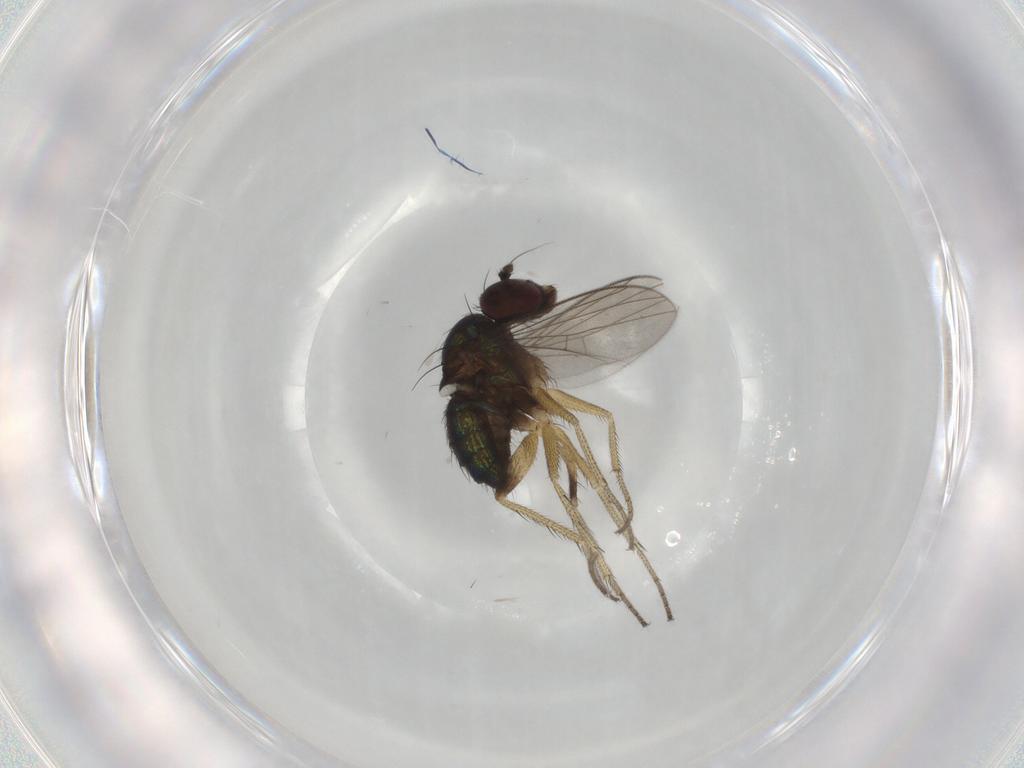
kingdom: Animalia
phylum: Arthropoda
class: Insecta
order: Diptera
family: Dolichopodidae
